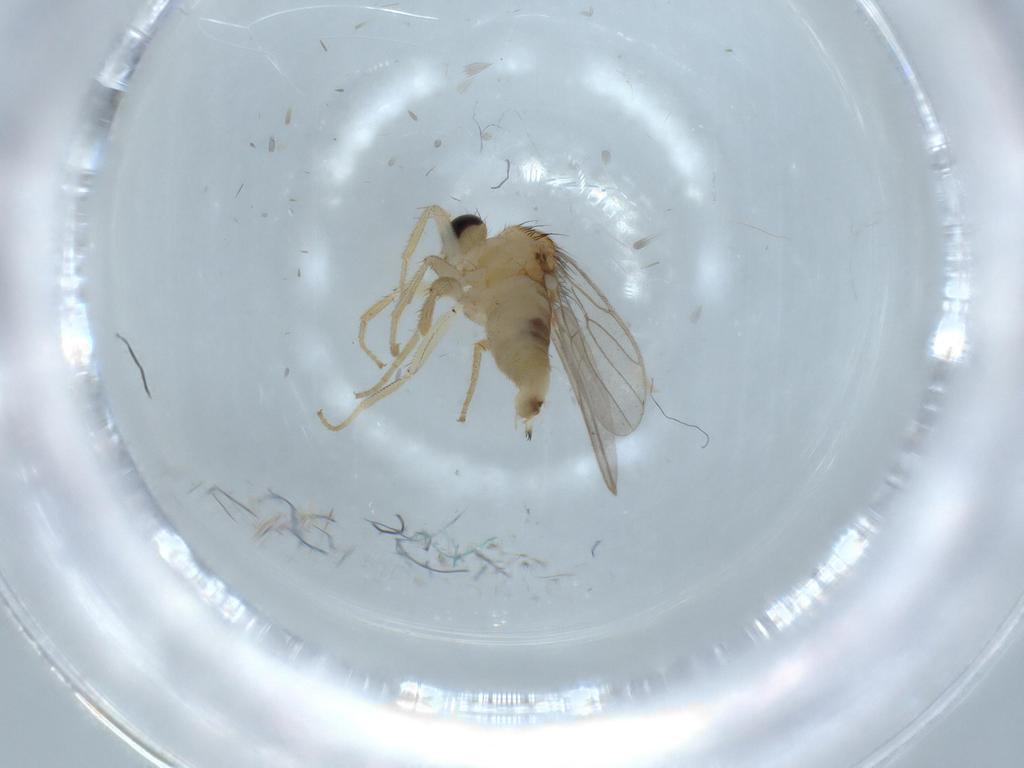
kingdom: Animalia
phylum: Arthropoda
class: Insecta
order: Diptera
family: Hybotidae
